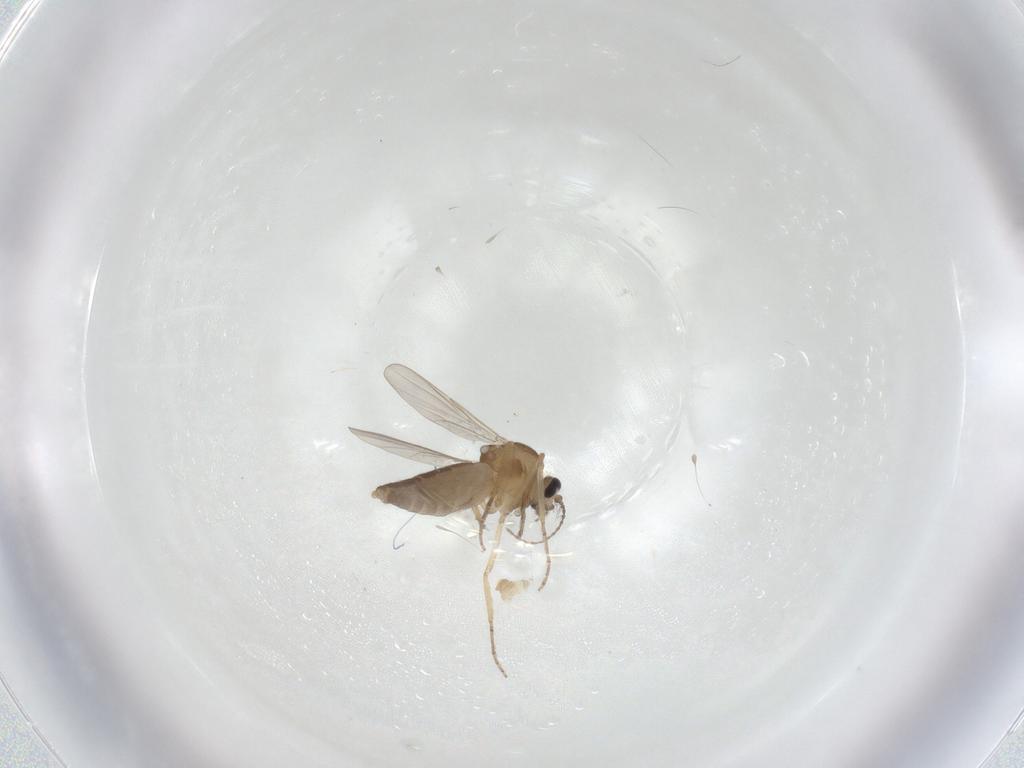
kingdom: Animalia
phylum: Arthropoda
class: Insecta
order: Diptera
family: Ceratopogonidae
